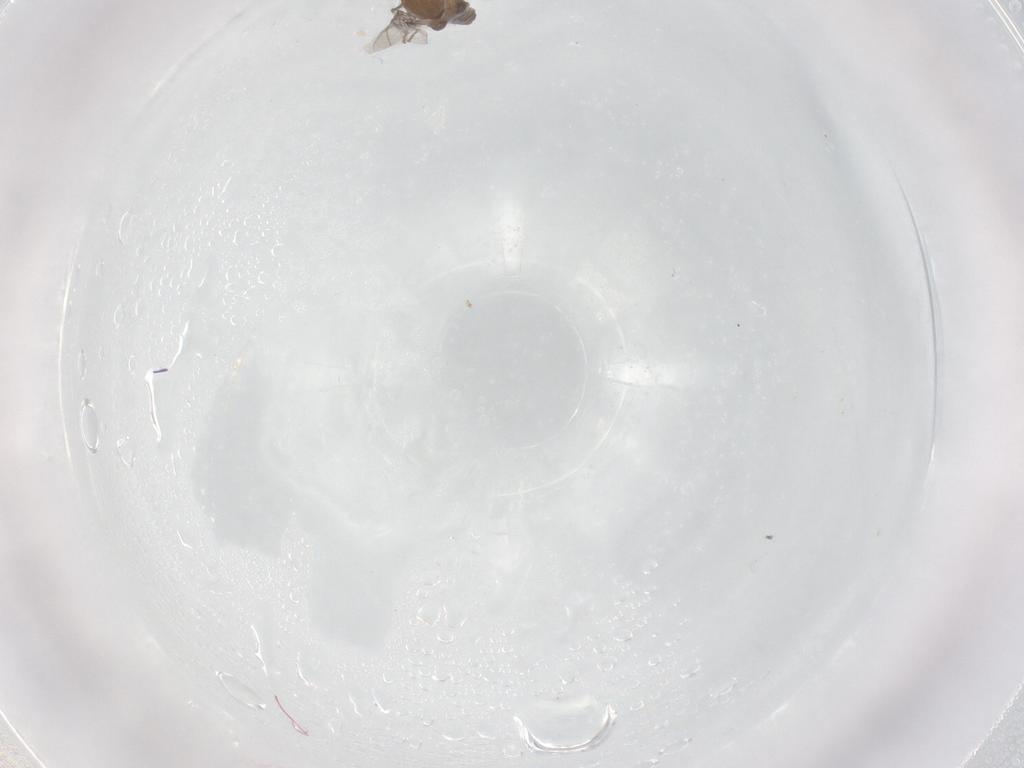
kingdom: Animalia
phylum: Arthropoda
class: Insecta
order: Orthoptera
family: Anostostomatidae
